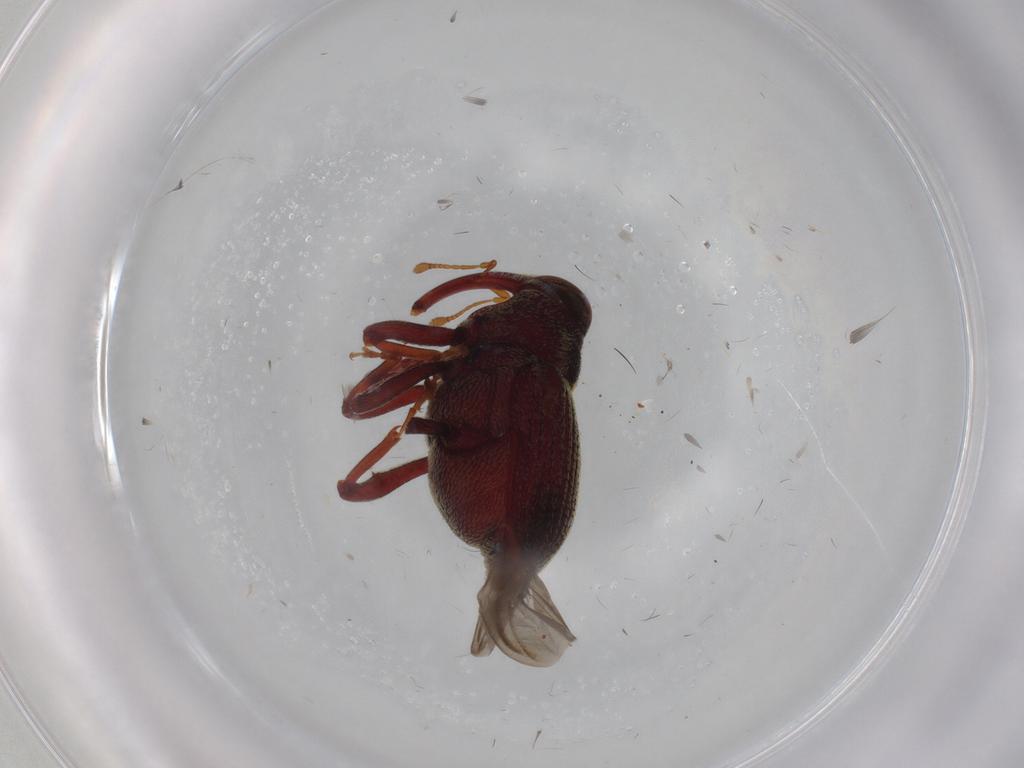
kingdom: Animalia
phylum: Arthropoda
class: Insecta
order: Coleoptera
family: Curculionidae
